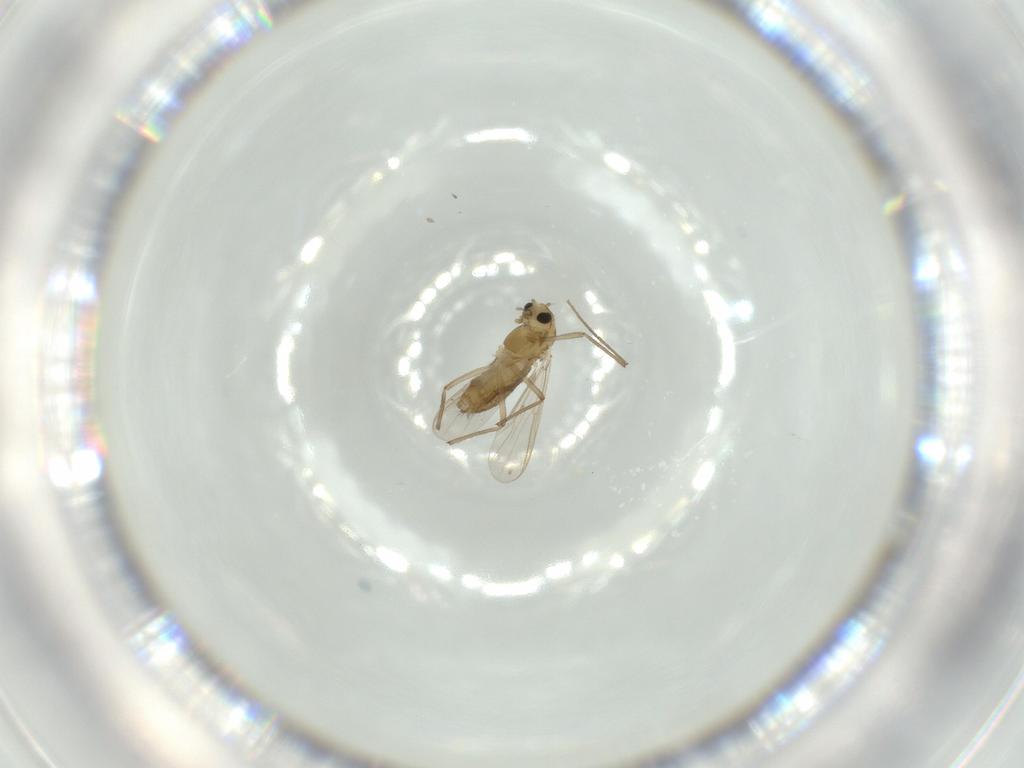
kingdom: Animalia
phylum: Arthropoda
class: Insecta
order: Diptera
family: Chironomidae
